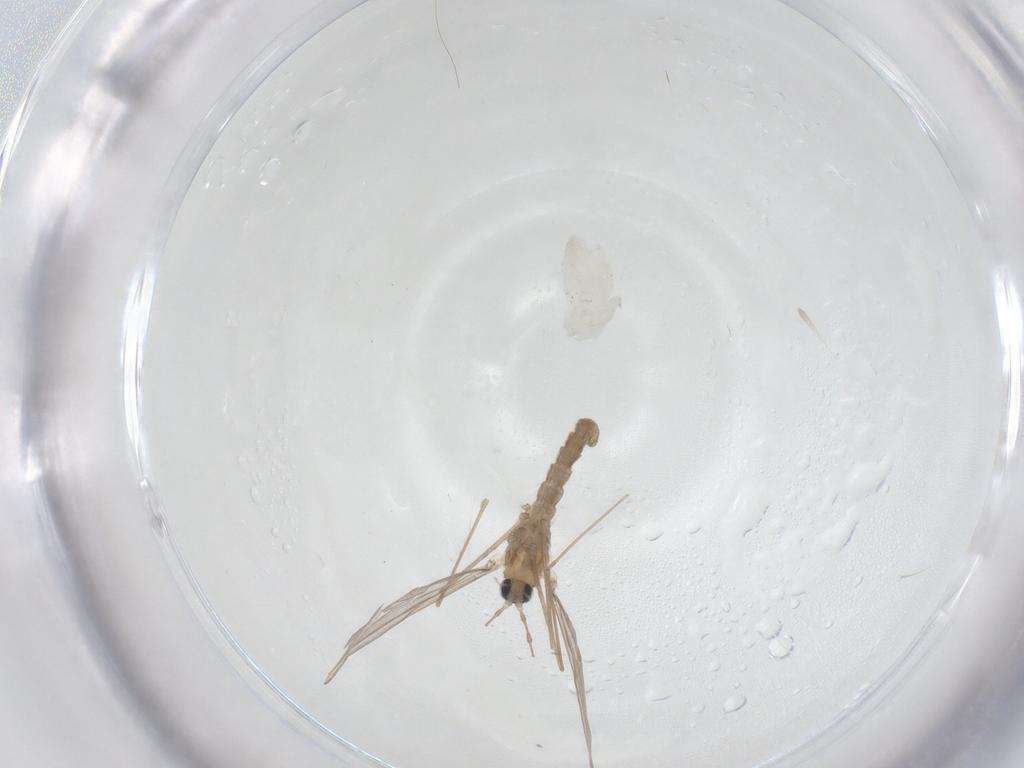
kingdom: Animalia
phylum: Arthropoda
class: Insecta
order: Diptera
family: Cecidomyiidae
